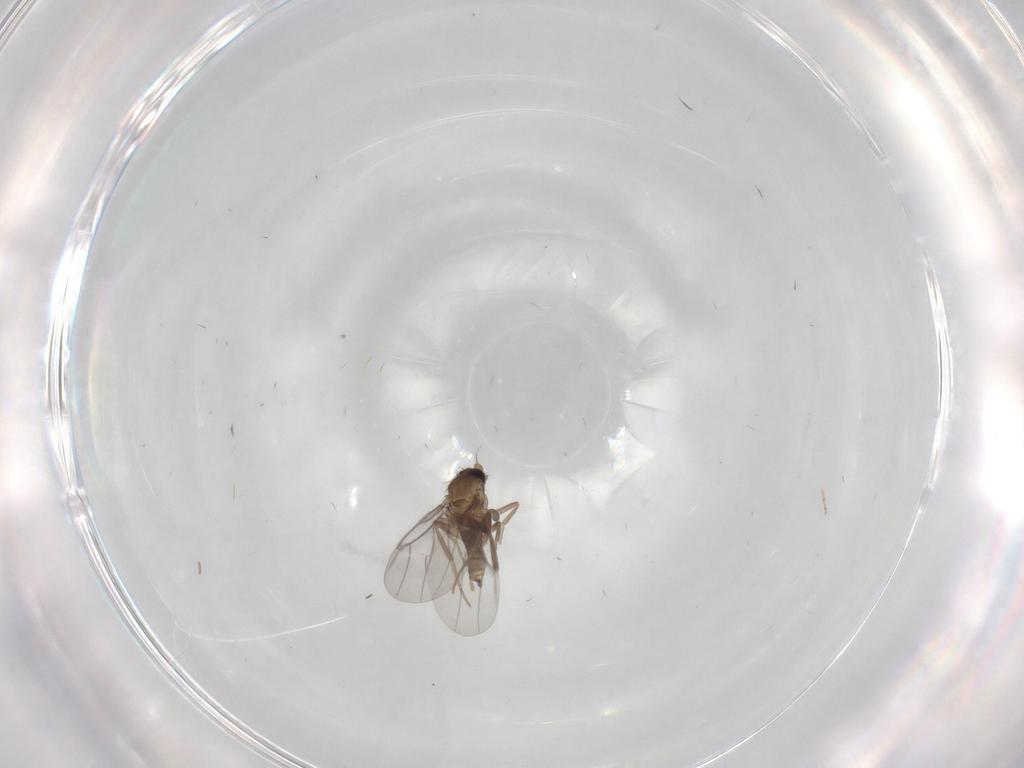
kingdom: Animalia
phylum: Arthropoda
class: Insecta
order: Diptera
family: Ceratopogonidae
